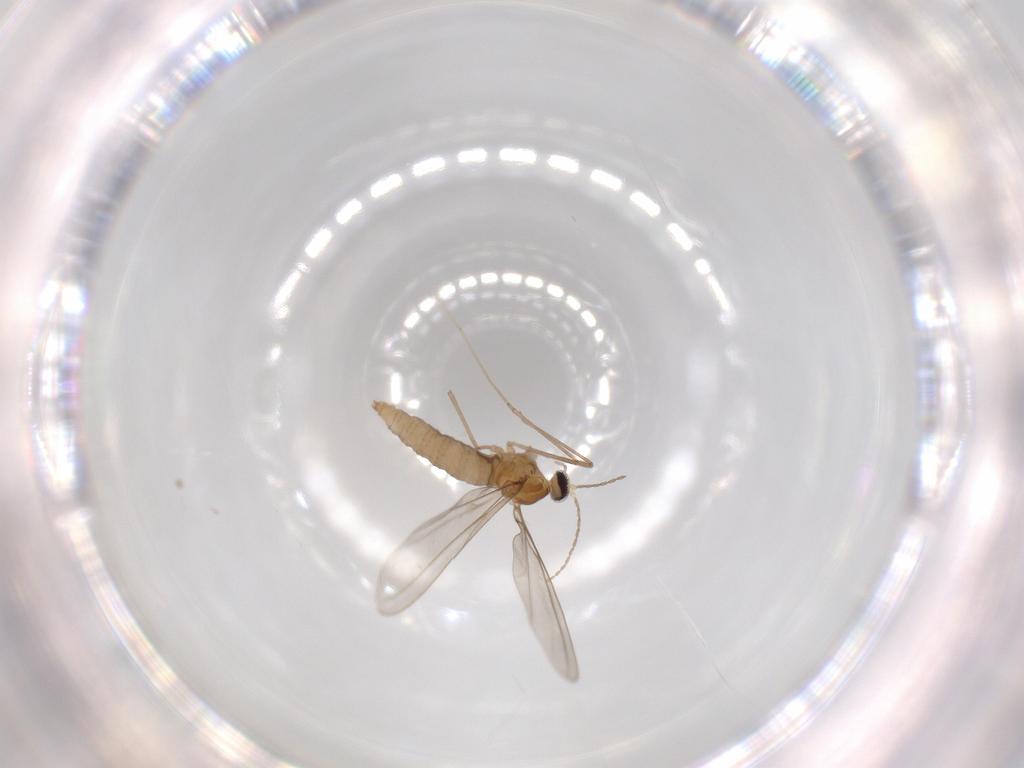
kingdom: Animalia
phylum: Arthropoda
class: Insecta
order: Diptera
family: Cecidomyiidae
